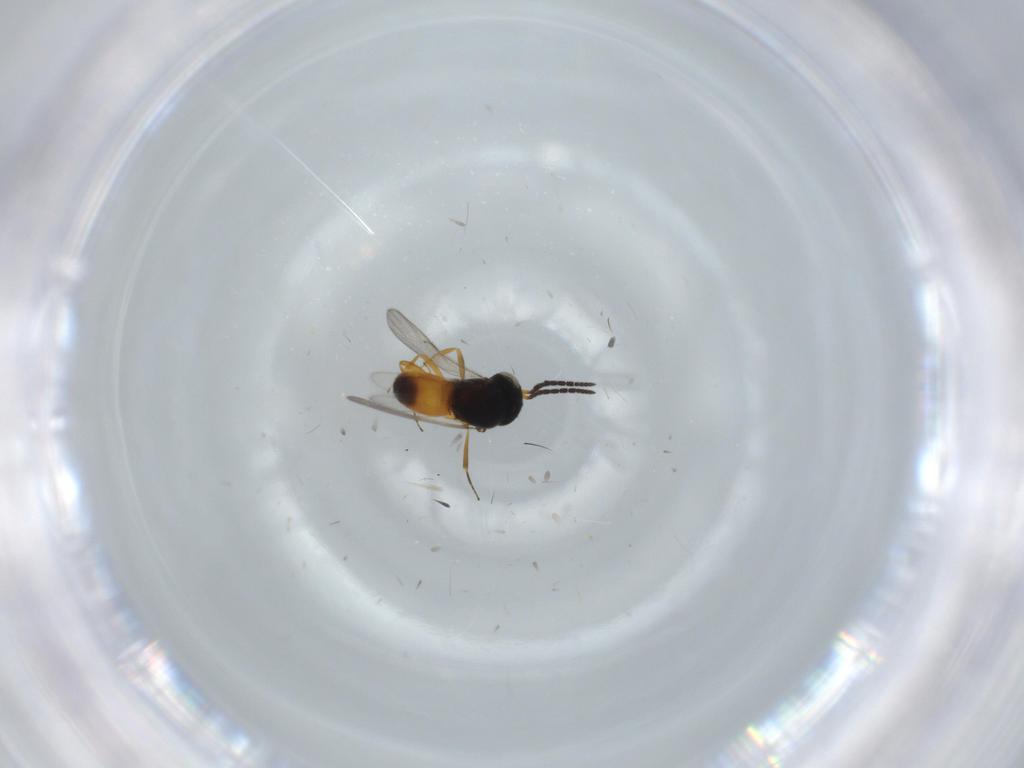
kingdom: Animalia
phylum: Arthropoda
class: Insecta
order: Hymenoptera
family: Scelionidae
